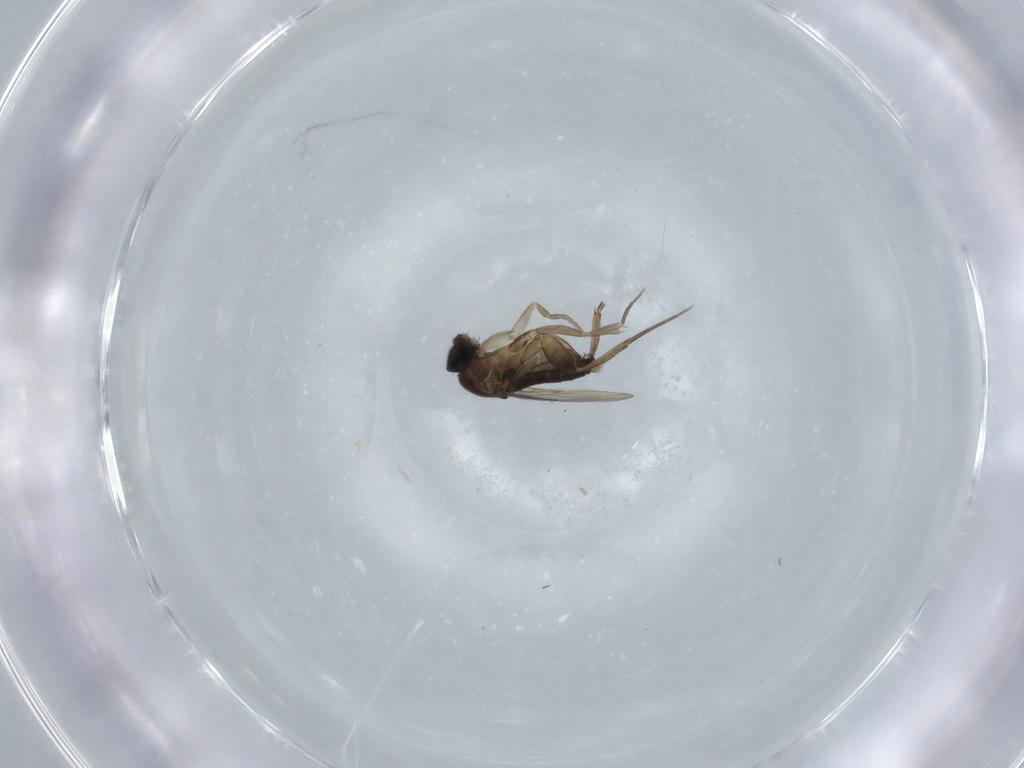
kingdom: Animalia
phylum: Arthropoda
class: Insecta
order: Diptera
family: Phoridae
